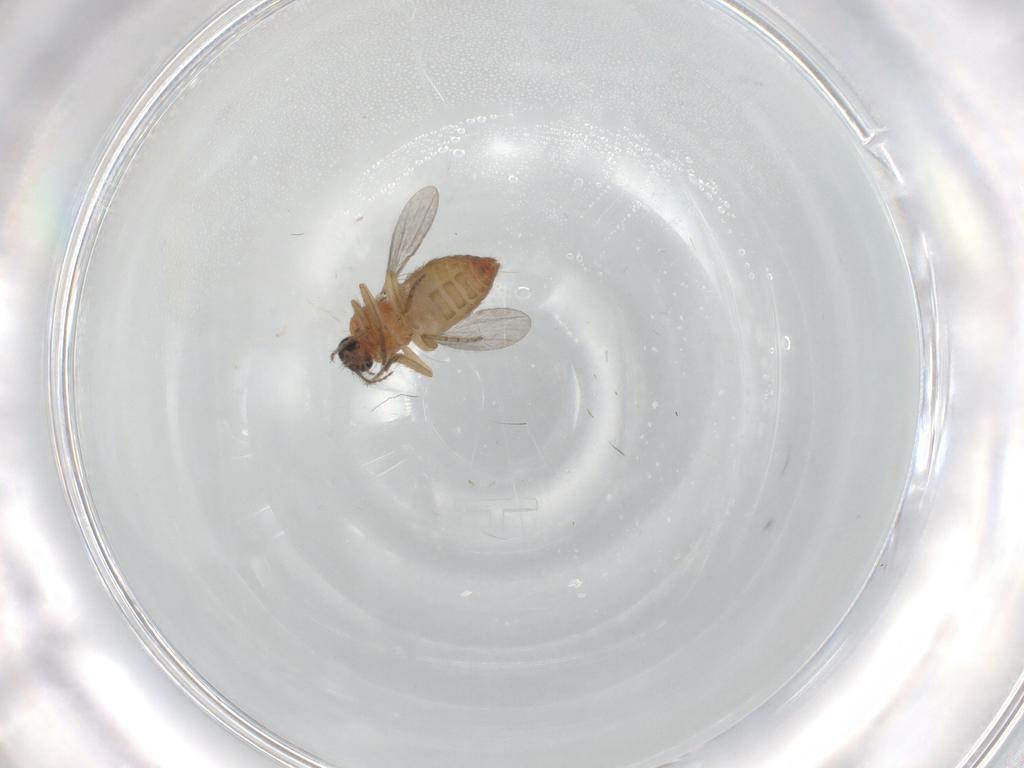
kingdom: Animalia
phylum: Arthropoda
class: Insecta
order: Diptera
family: Ceratopogonidae
